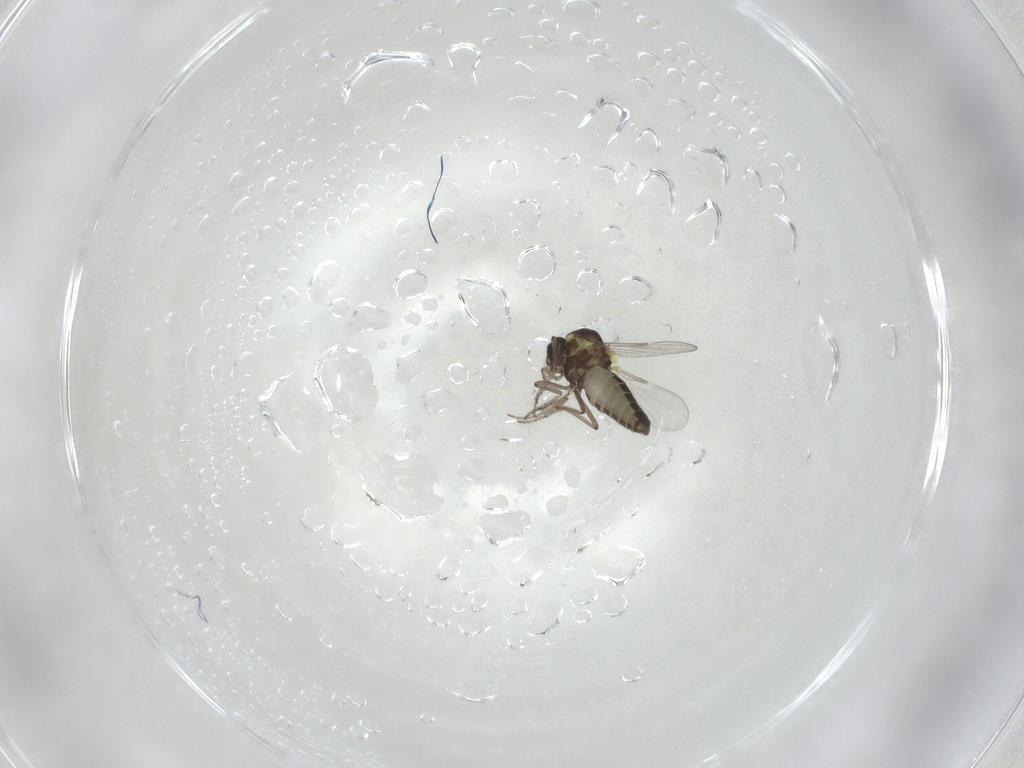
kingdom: Animalia
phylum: Arthropoda
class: Insecta
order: Diptera
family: Ceratopogonidae
